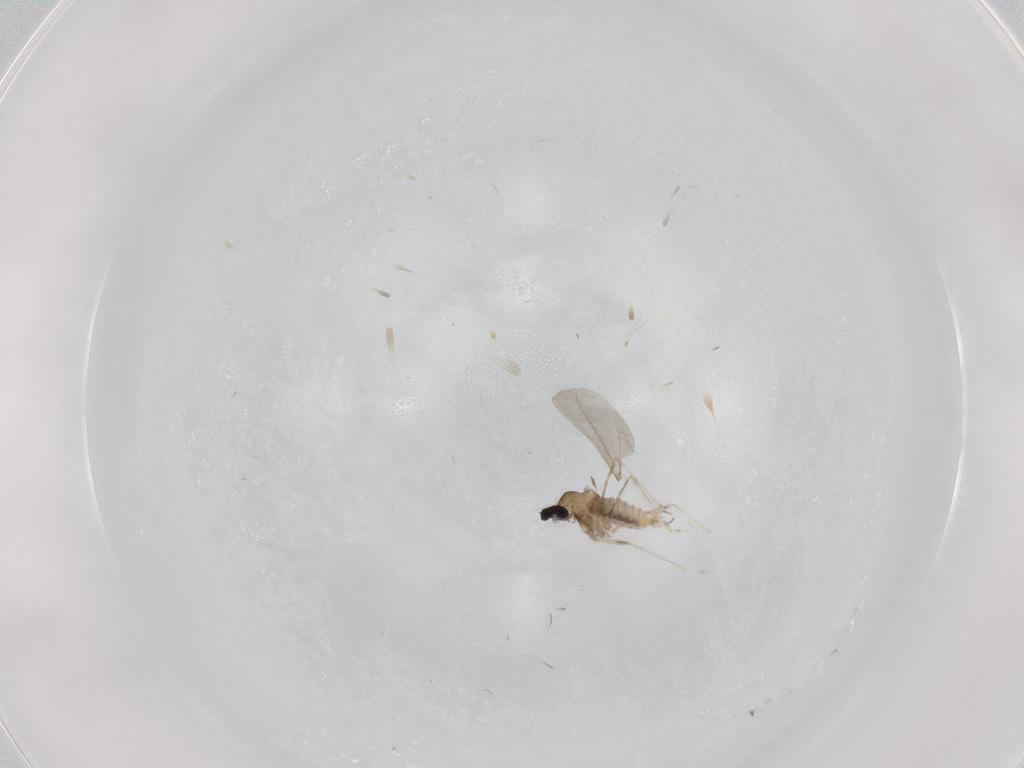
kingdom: Animalia
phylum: Arthropoda
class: Insecta
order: Diptera
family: Cecidomyiidae
